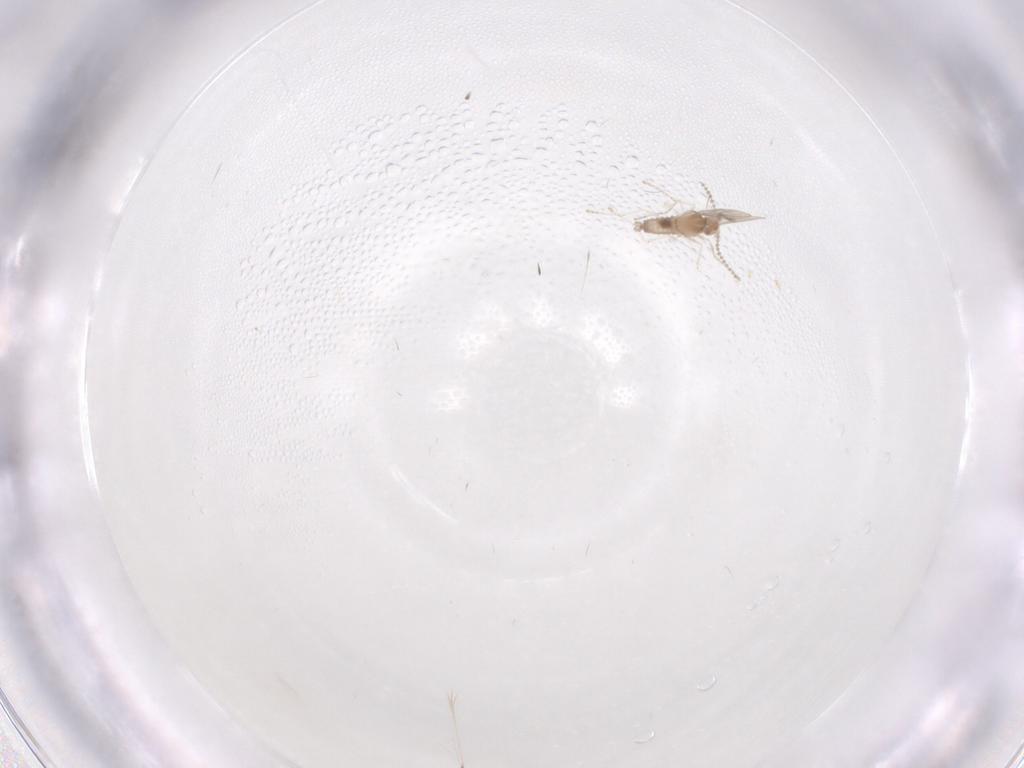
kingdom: Animalia
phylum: Arthropoda
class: Insecta
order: Diptera
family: Cecidomyiidae
